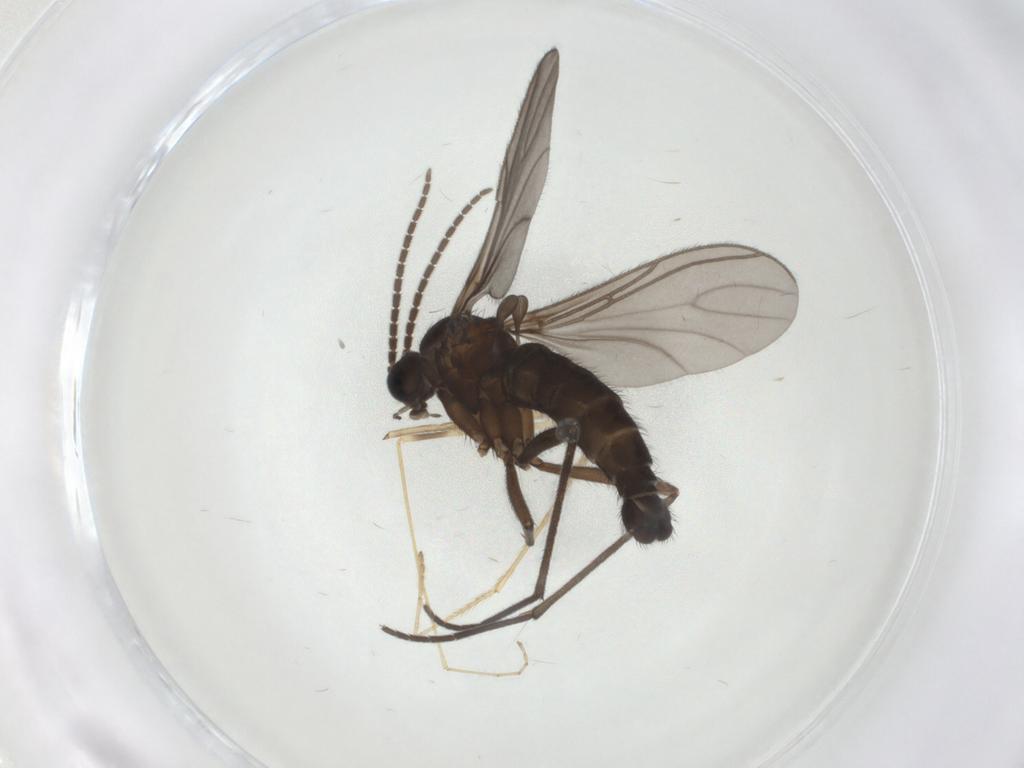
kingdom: Animalia
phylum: Arthropoda
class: Insecta
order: Diptera
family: Sciaridae
